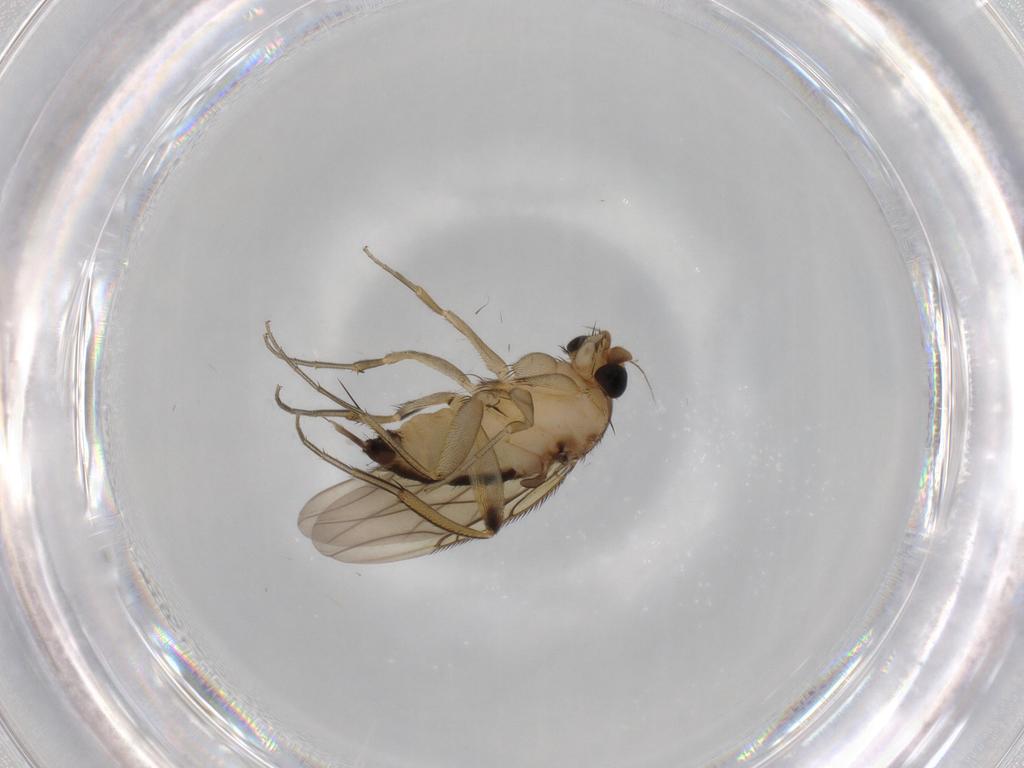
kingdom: Animalia
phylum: Arthropoda
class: Insecta
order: Diptera
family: Phoridae
